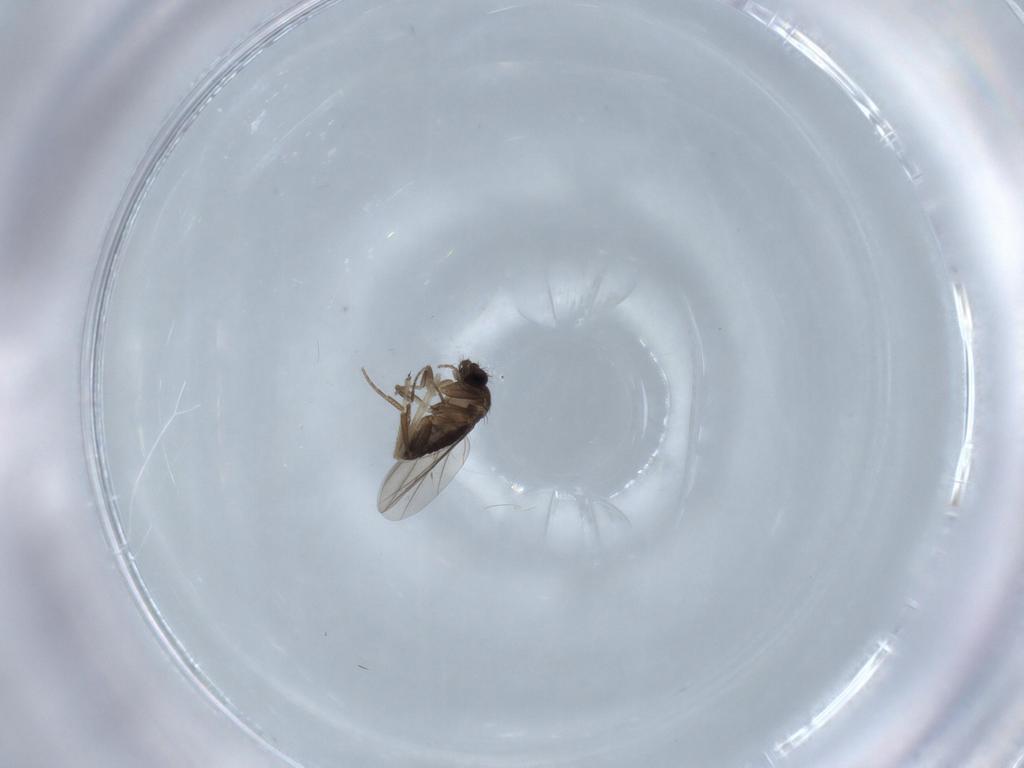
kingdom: Animalia
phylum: Arthropoda
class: Insecta
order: Diptera
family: Phoridae
